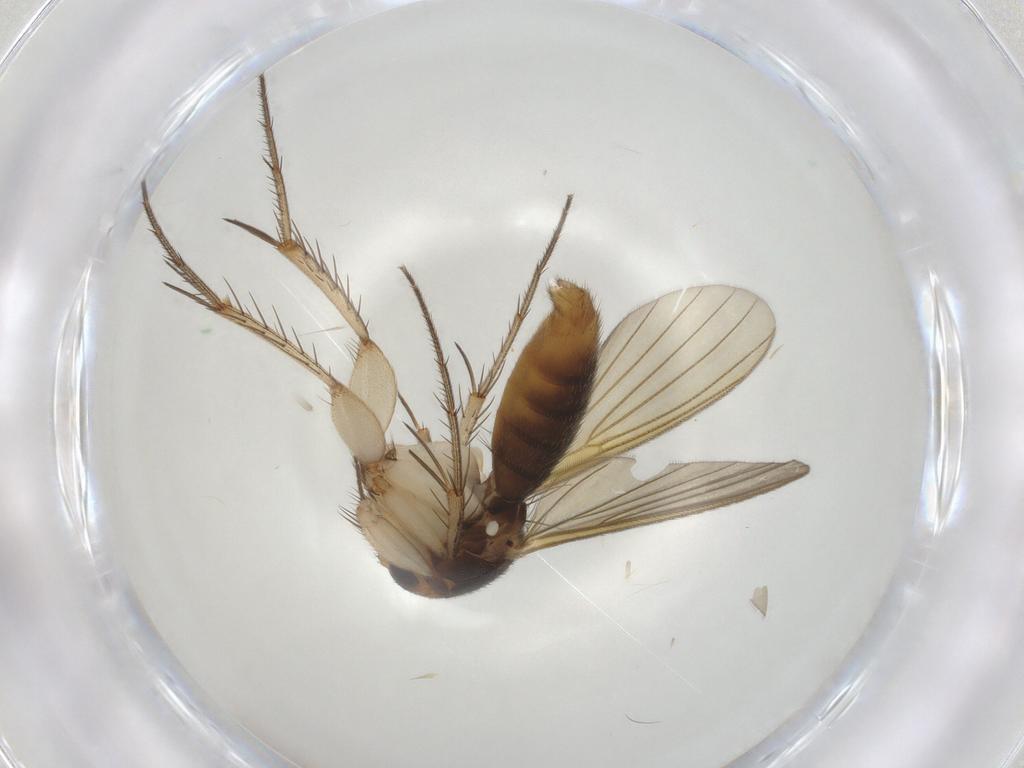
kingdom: Animalia
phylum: Arthropoda
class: Insecta
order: Diptera
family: Mycetophilidae
